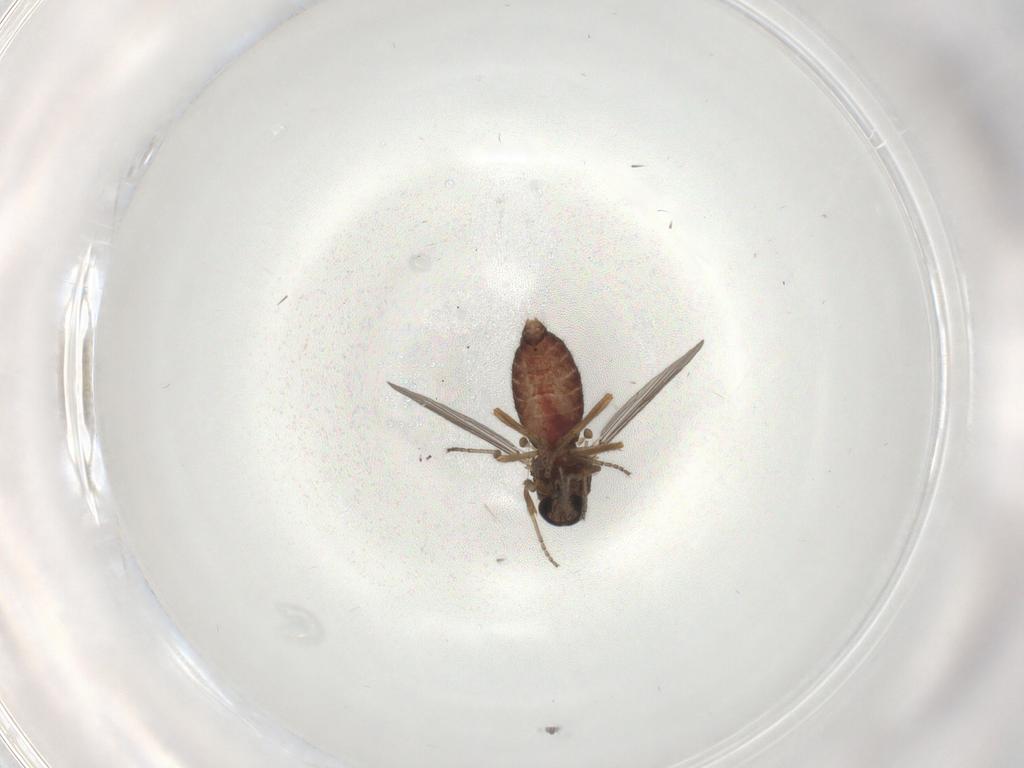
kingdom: Animalia
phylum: Arthropoda
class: Insecta
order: Diptera
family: Ceratopogonidae
